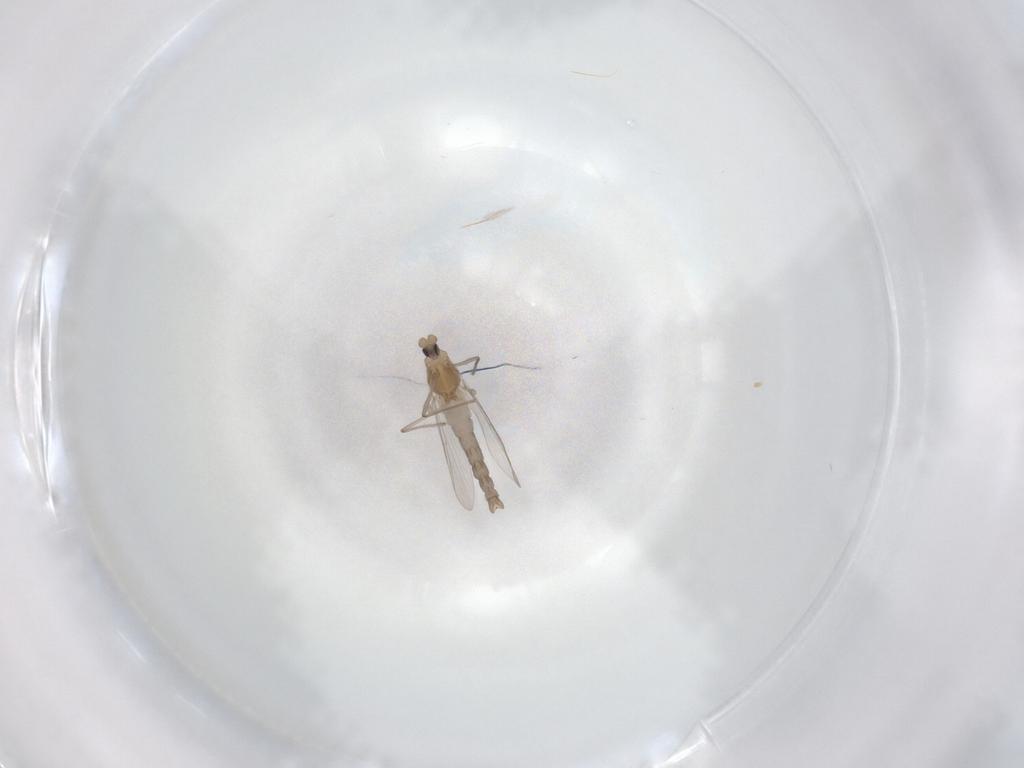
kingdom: Animalia
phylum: Arthropoda
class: Insecta
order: Diptera
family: Chironomidae
